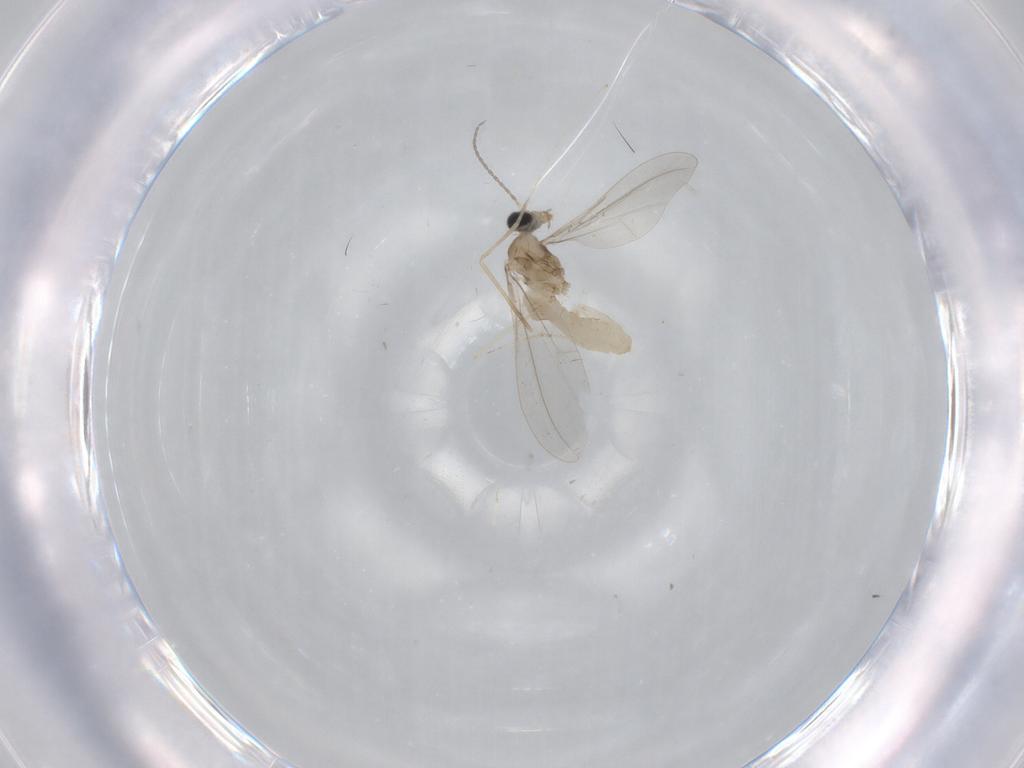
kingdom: Animalia
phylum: Arthropoda
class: Insecta
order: Diptera
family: Cecidomyiidae
